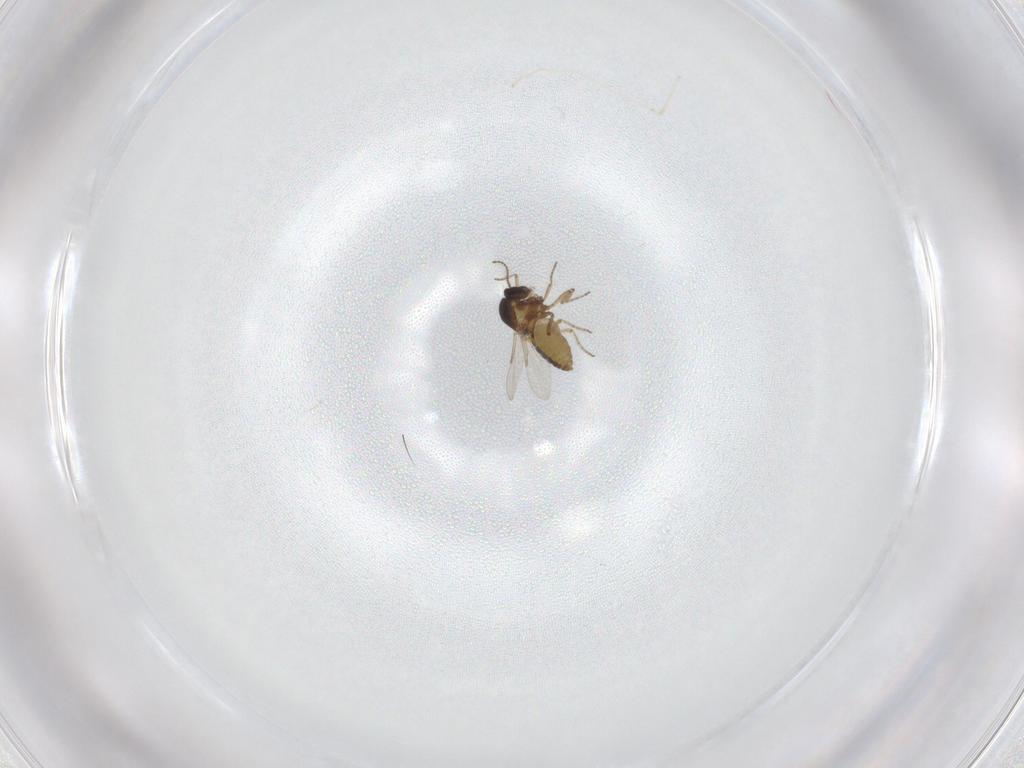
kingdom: Animalia
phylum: Arthropoda
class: Insecta
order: Diptera
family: Ceratopogonidae
